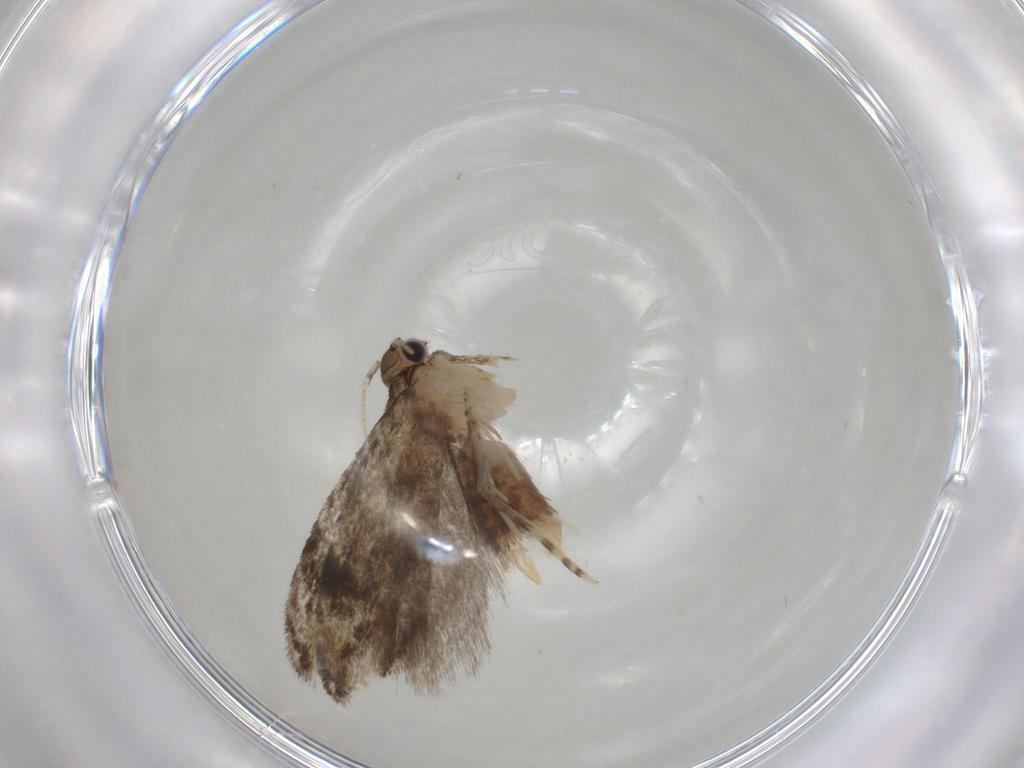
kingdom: Animalia
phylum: Arthropoda
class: Insecta
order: Lepidoptera
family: Tineidae
